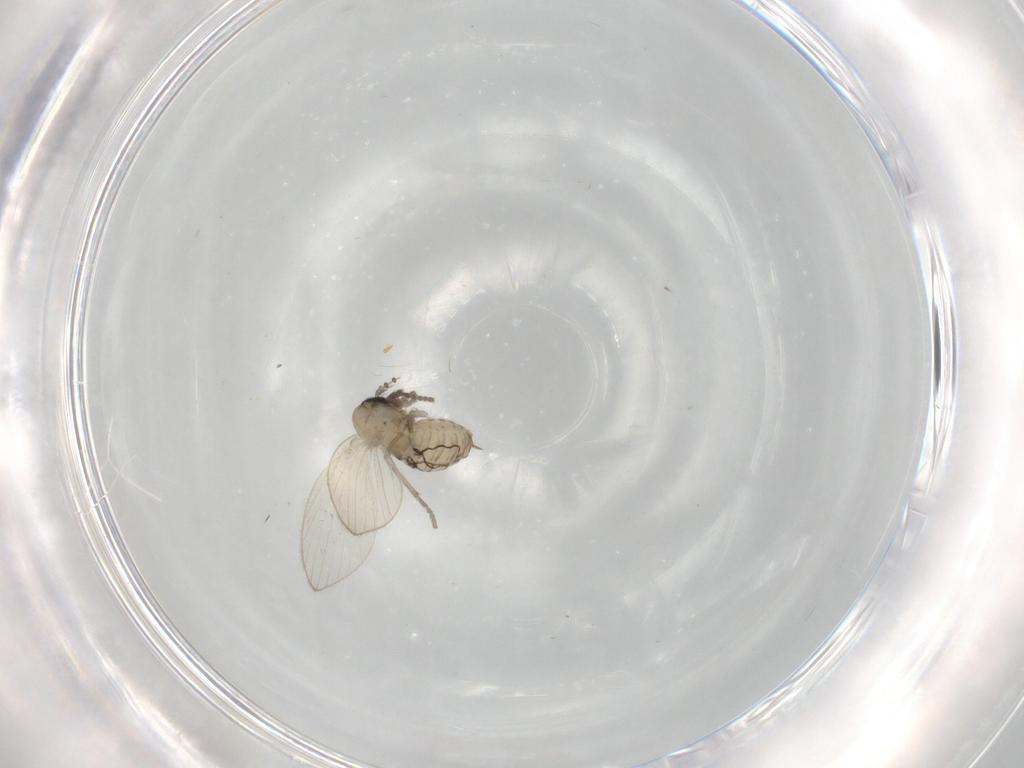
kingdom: Animalia
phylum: Arthropoda
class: Insecta
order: Diptera
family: Psychodidae
